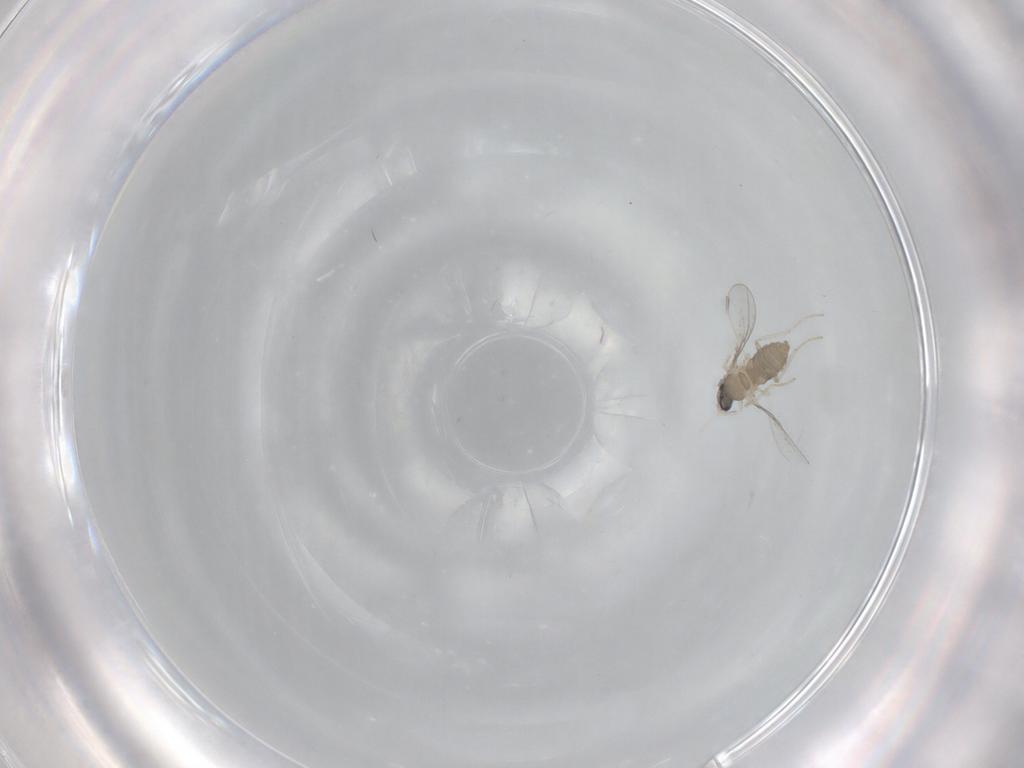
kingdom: Animalia
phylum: Arthropoda
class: Insecta
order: Diptera
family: Cecidomyiidae
